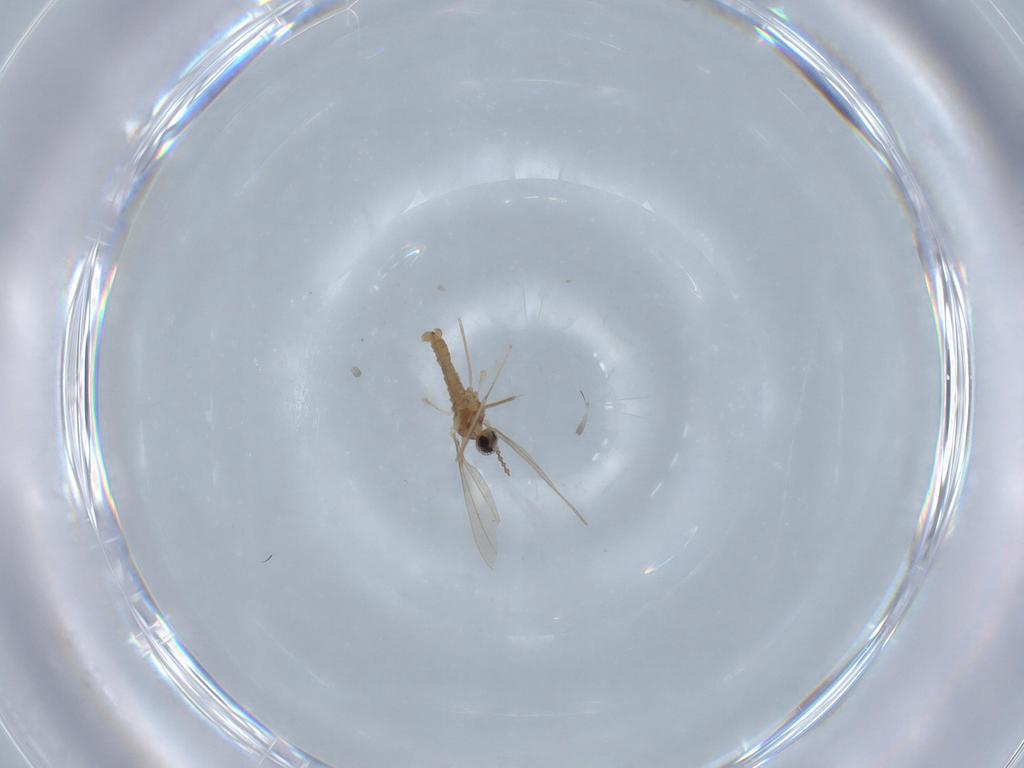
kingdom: Animalia
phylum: Arthropoda
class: Insecta
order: Diptera
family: Cecidomyiidae
